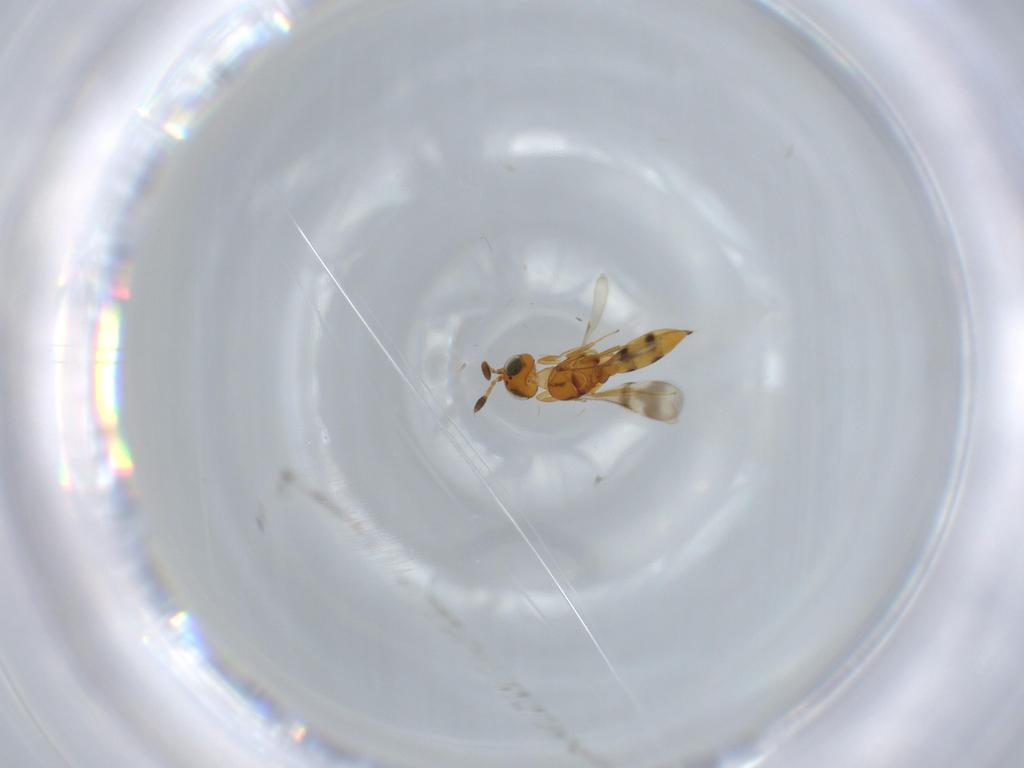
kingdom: Animalia
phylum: Arthropoda
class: Insecta
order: Hymenoptera
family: Scelionidae
